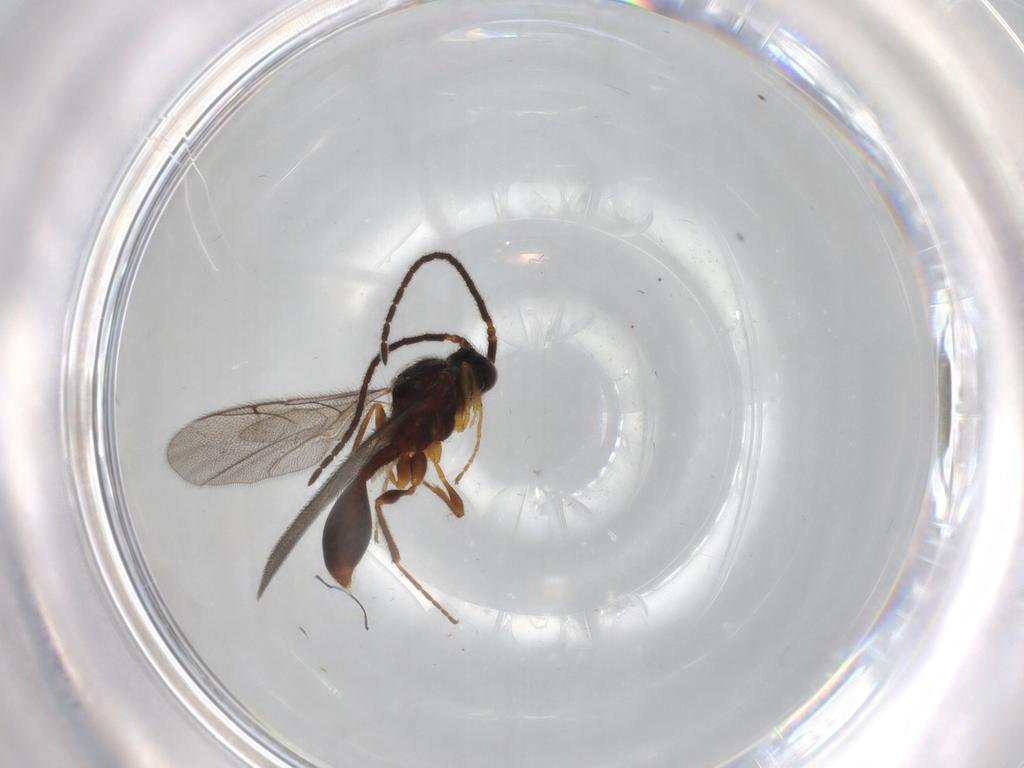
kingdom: Animalia
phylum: Arthropoda
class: Insecta
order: Hymenoptera
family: Diapriidae
